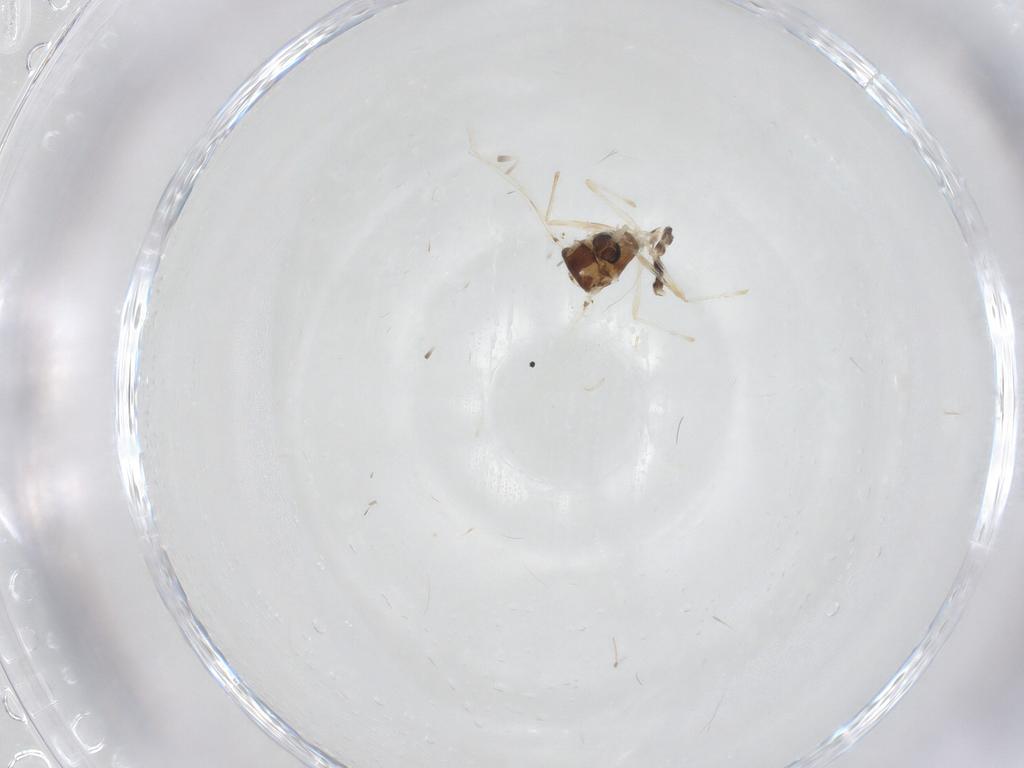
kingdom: Animalia
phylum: Arthropoda
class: Insecta
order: Diptera
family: Chironomidae
